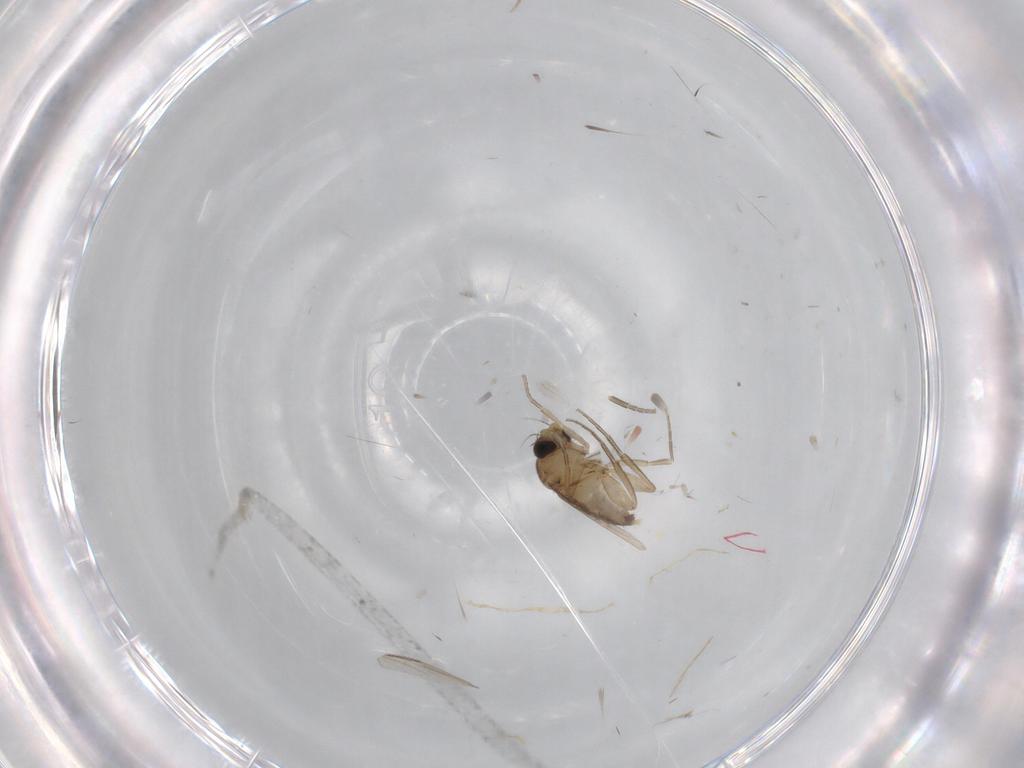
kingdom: Animalia
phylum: Arthropoda
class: Insecta
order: Diptera
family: Phoridae
